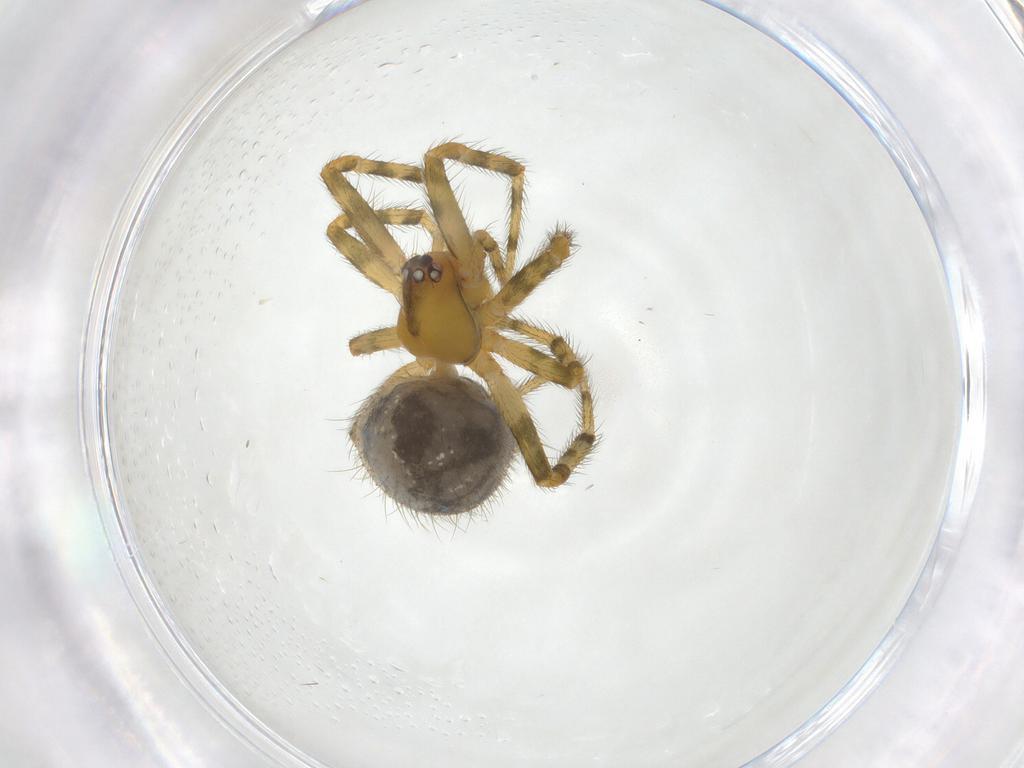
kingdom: Animalia
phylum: Arthropoda
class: Arachnida
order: Araneae
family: Theridiidae
